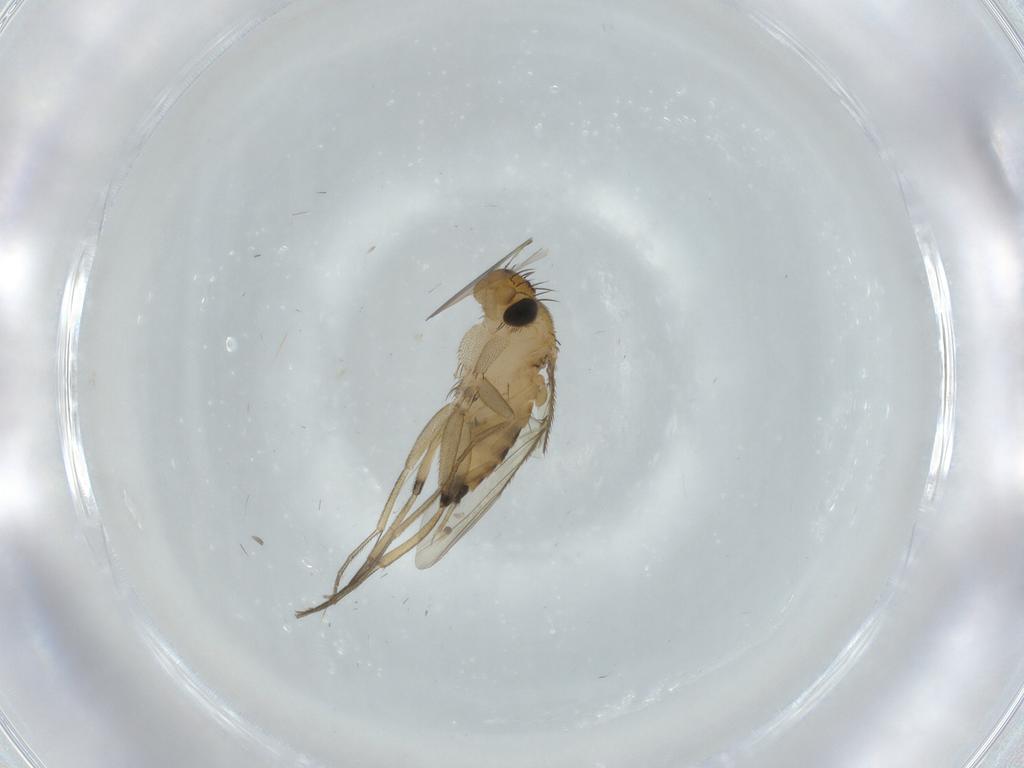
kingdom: Animalia
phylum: Arthropoda
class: Insecta
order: Diptera
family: Phoridae
